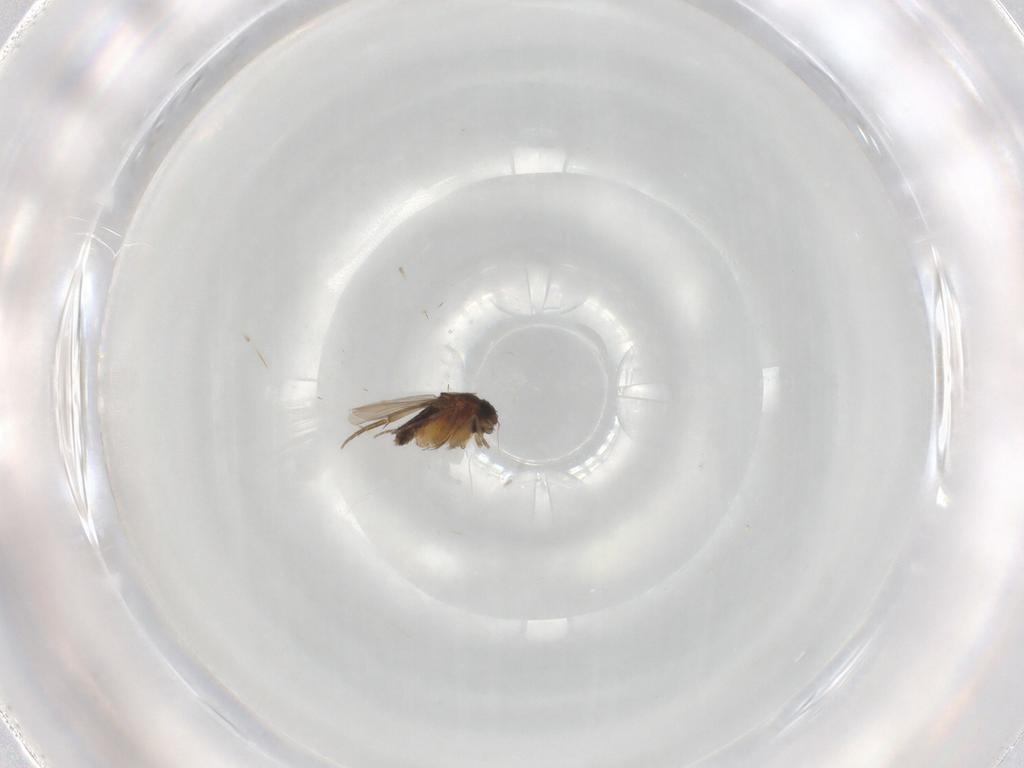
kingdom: Animalia
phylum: Arthropoda
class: Insecta
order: Diptera
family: Phoridae
